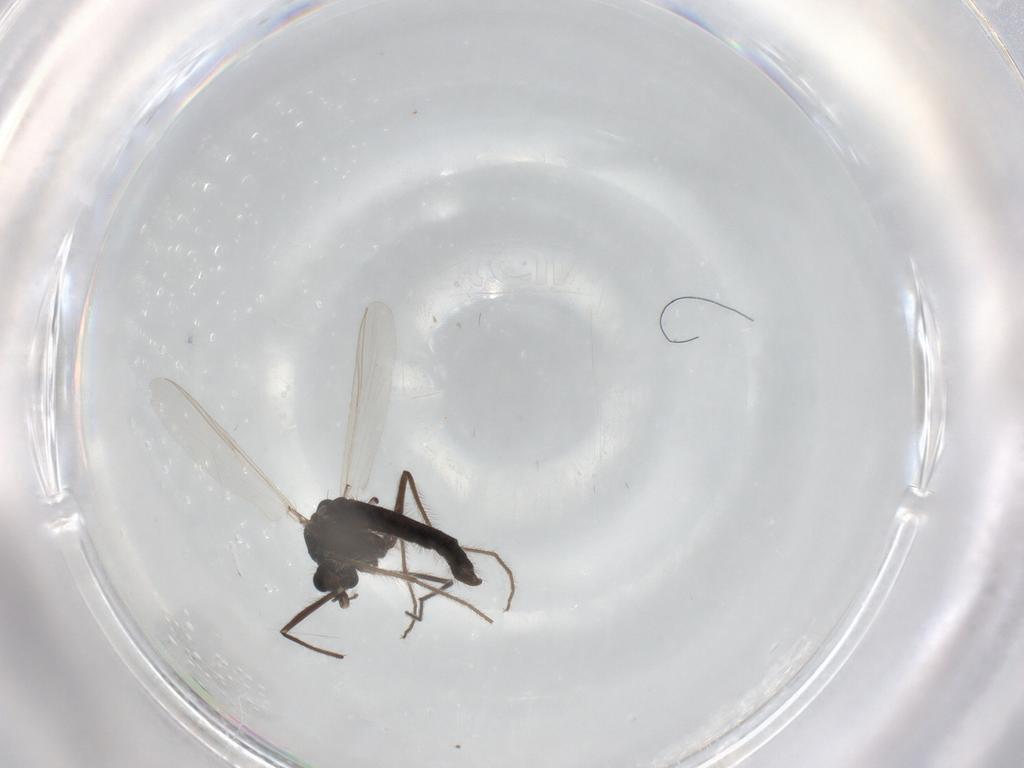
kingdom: Animalia
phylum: Arthropoda
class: Insecta
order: Diptera
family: Chironomidae
